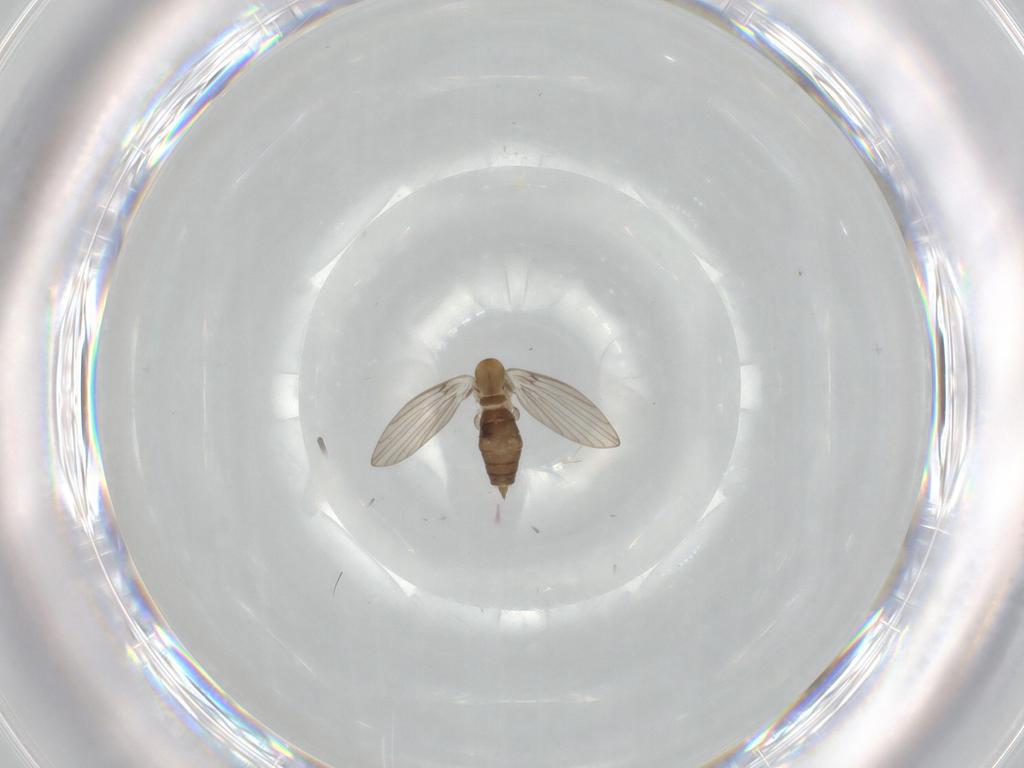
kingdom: Animalia
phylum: Arthropoda
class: Insecta
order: Diptera
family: Psychodidae
